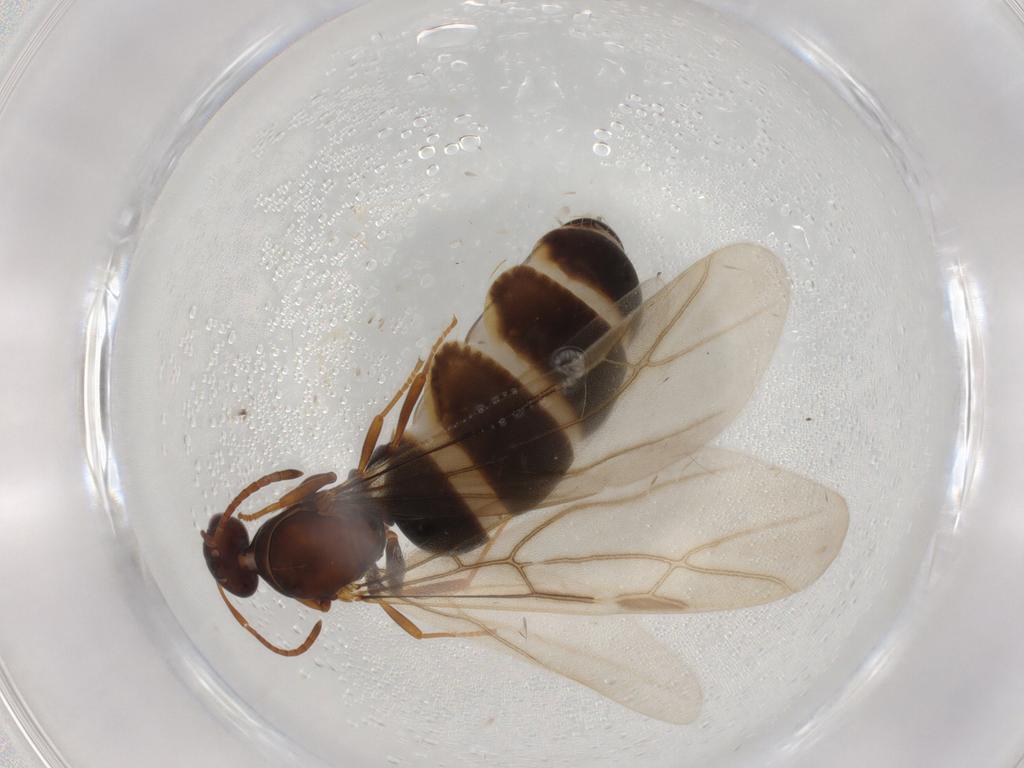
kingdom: Animalia
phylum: Arthropoda
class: Insecta
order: Hymenoptera
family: Formicidae
